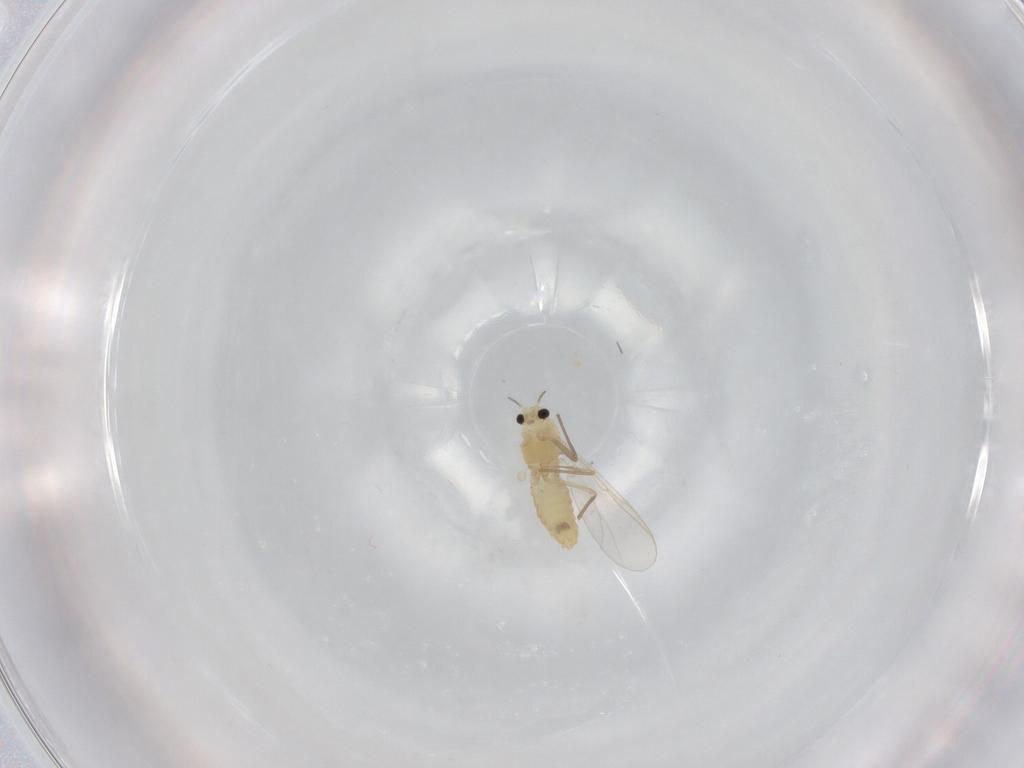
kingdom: Animalia
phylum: Arthropoda
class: Insecta
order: Diptera
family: Chironomidae
